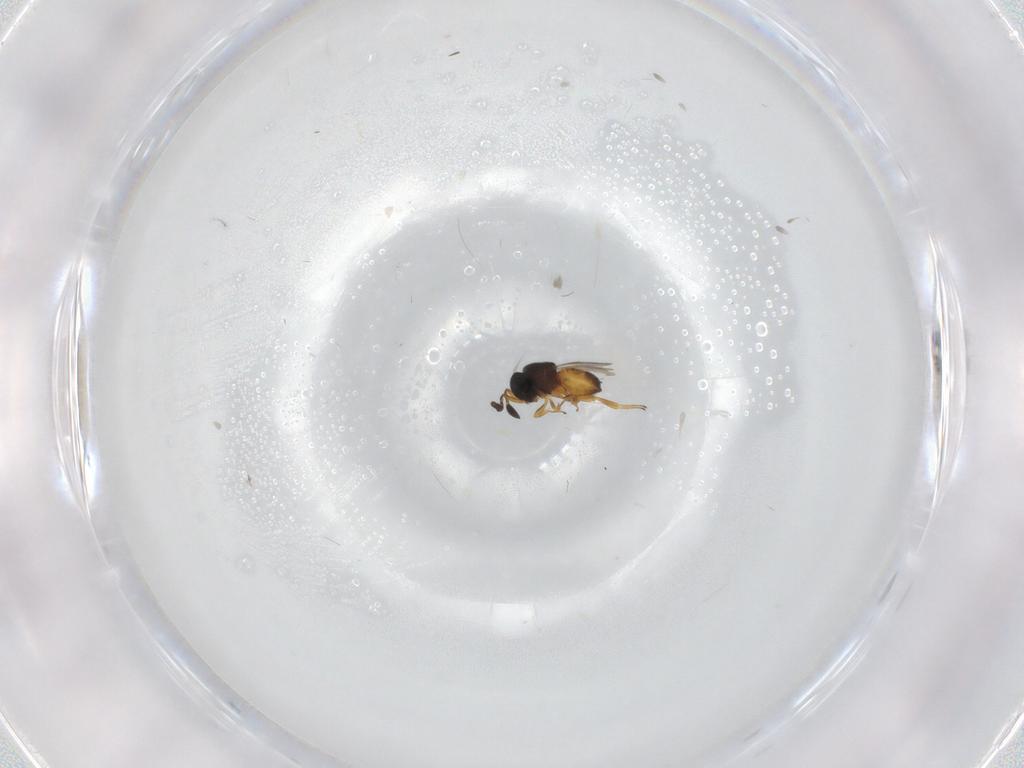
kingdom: Animalia
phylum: Arthropoda
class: Insecta
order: Hymenoptera
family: Scelionidae
